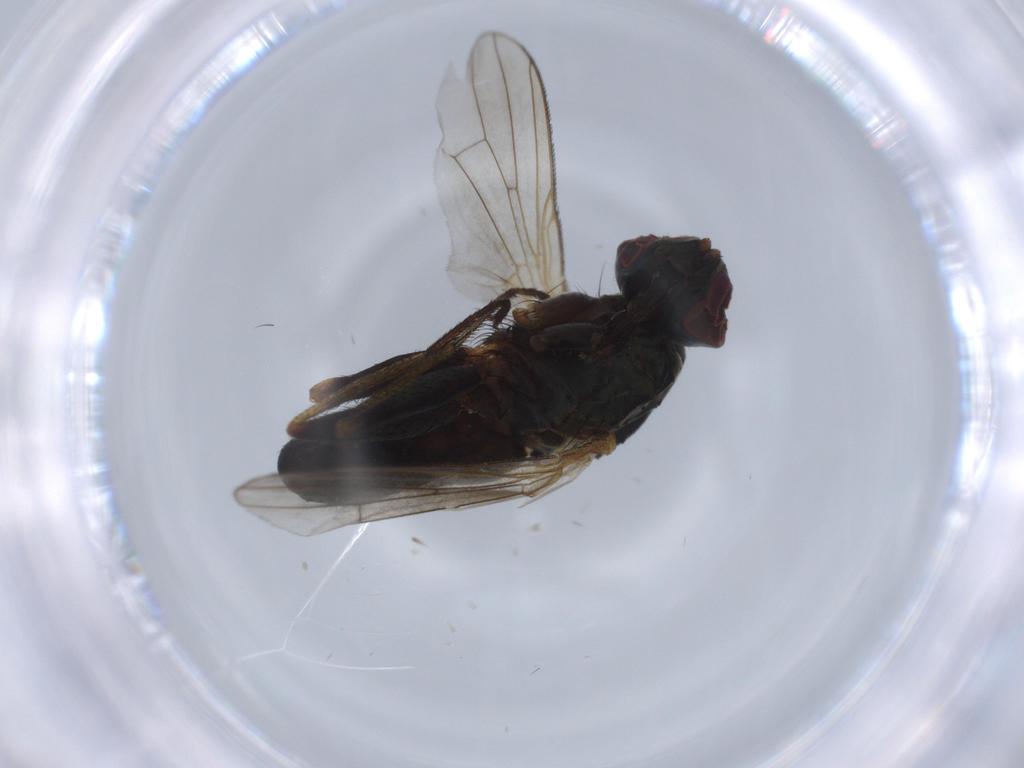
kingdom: Animalia
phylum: Arthropoda
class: Insecta
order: Diptera
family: Muscidae
